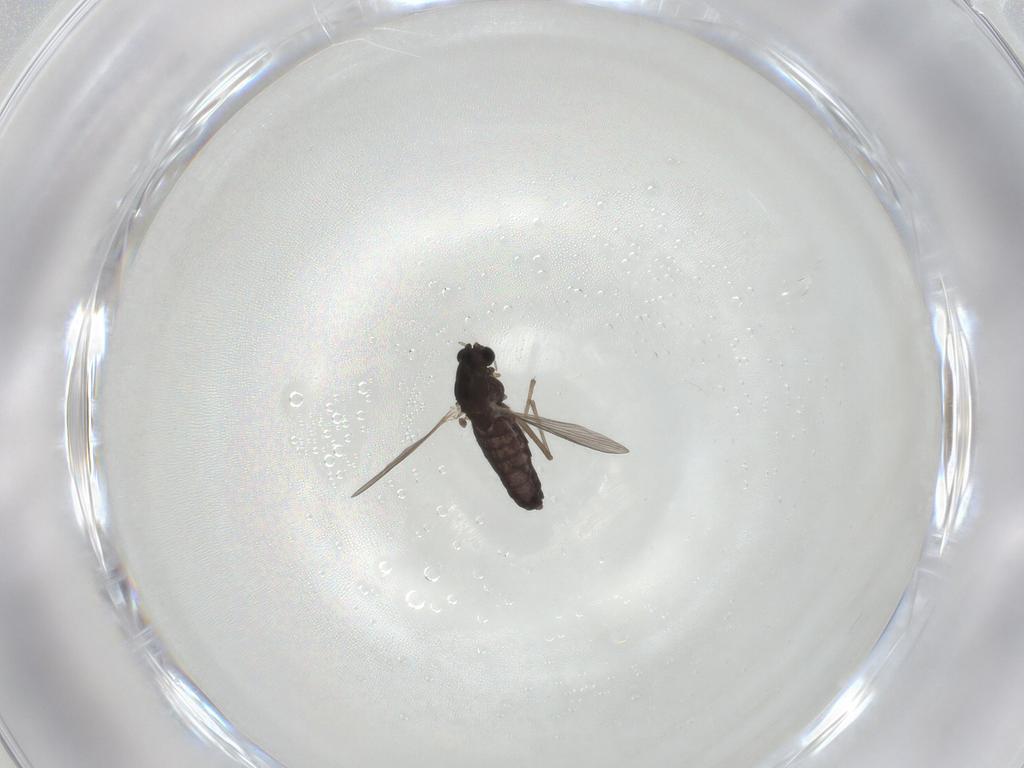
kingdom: Animalia
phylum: Arthropoda
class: Insecta
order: Diptera
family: Chironomidae
